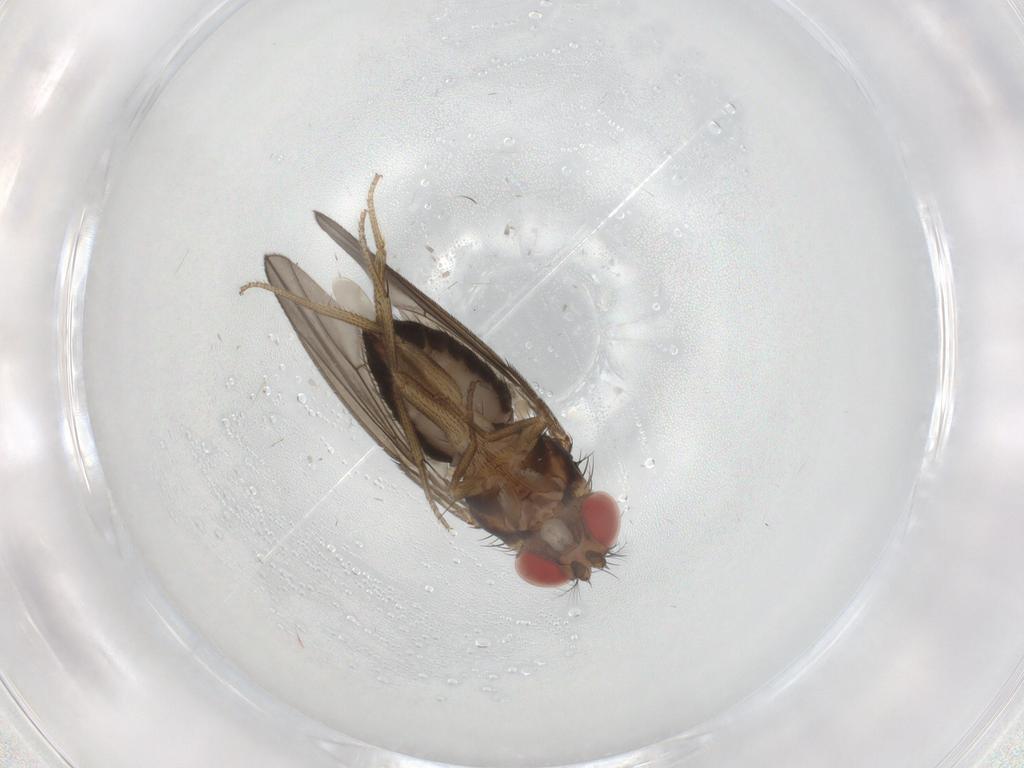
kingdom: Animalia
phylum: Arthropoda
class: Insecta
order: Diptera
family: Drosophilidae
